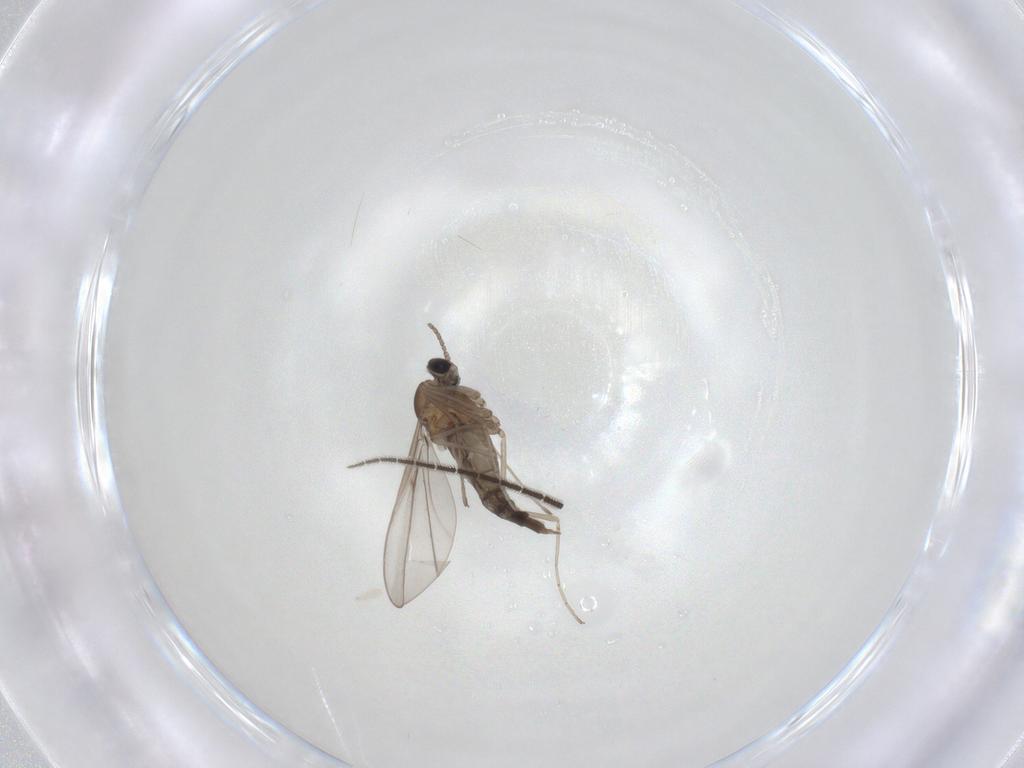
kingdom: Animalia
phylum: Arthropoda
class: Insecta
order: Diptera
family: Sciaridae
